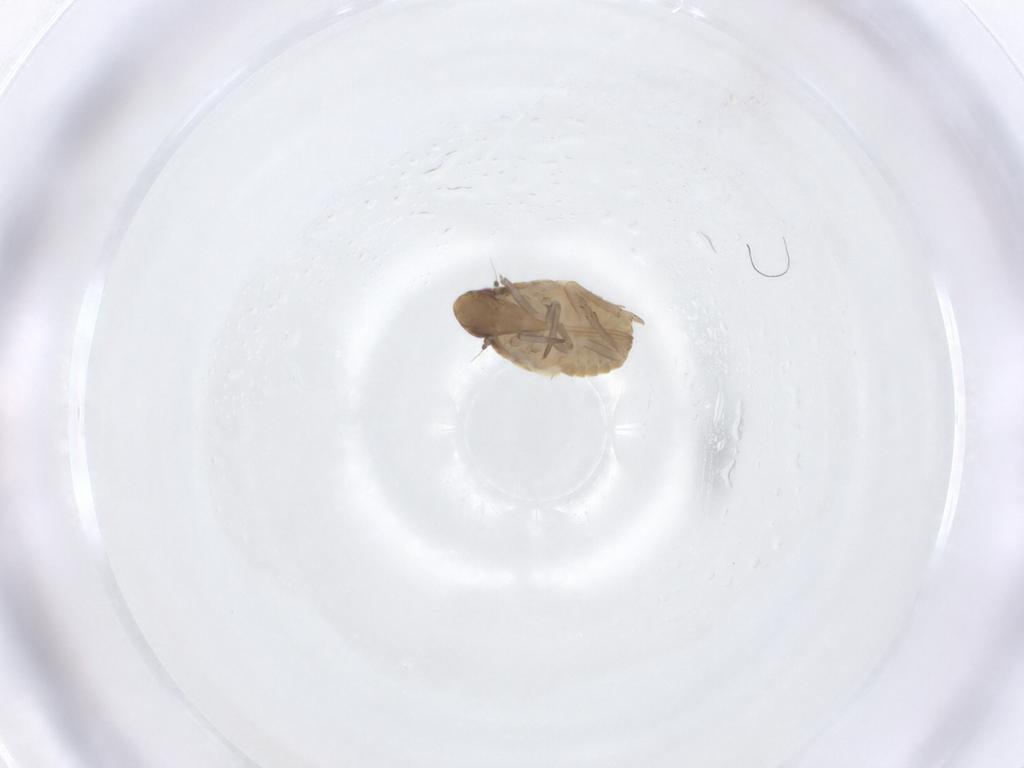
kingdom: Animalia
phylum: Arthropoda
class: Insecta
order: Hemiptera
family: Flatidae
